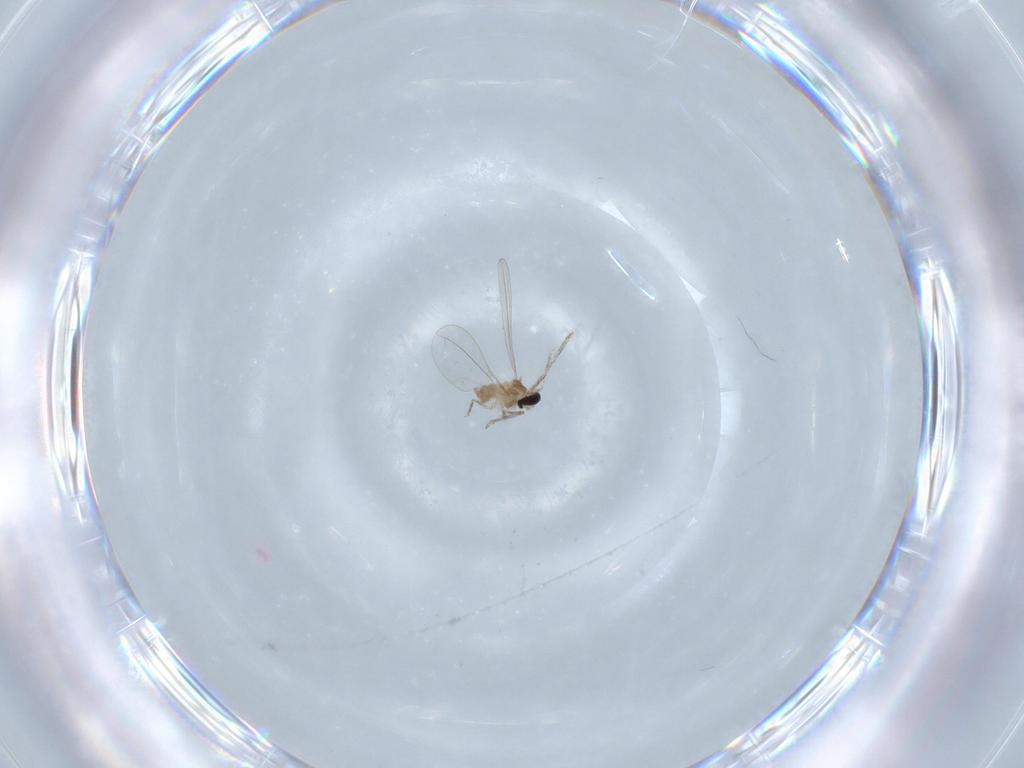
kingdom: Animalia
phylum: Arthropoda
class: Insecta
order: Diptera
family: Cecidomyiidae
